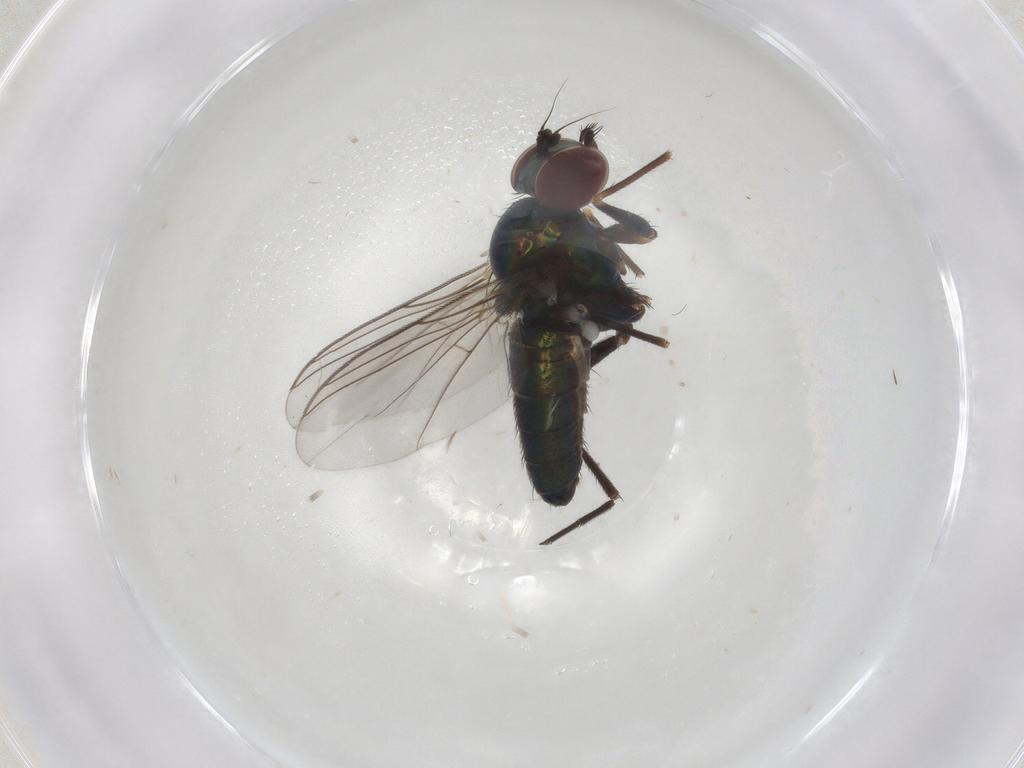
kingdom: Animalia
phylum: Arthropoda
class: Insecta
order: Diptera
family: Dolichopodidae
